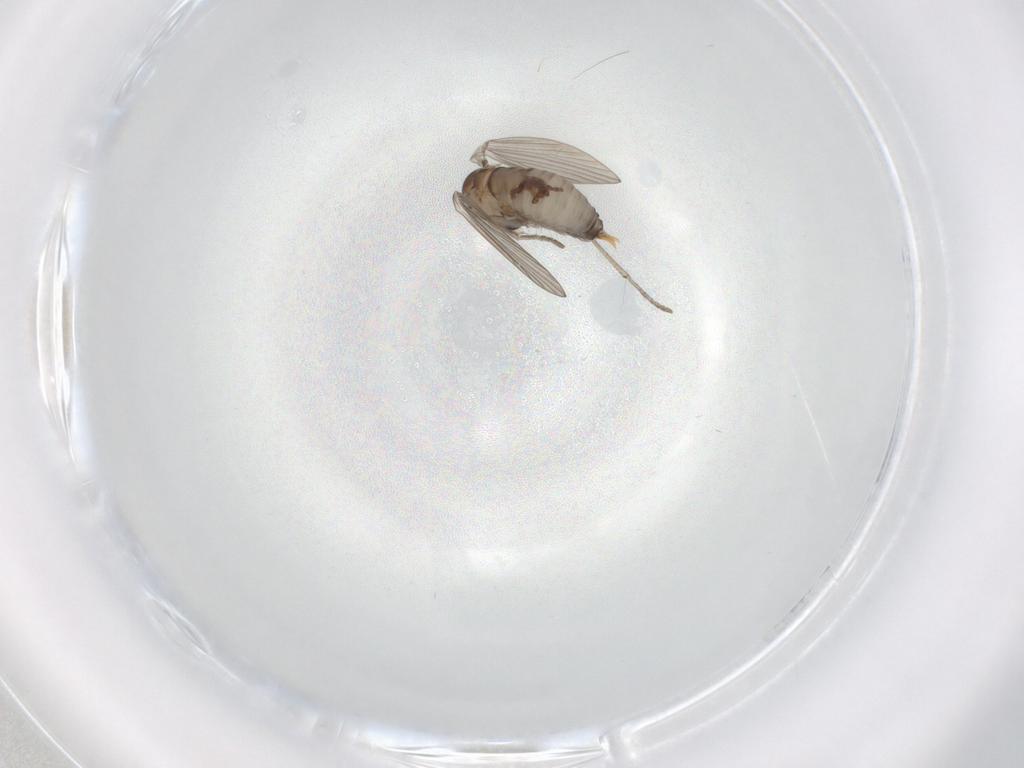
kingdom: Animalia
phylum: Arthropoda
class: Insecta
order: Diptera
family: Psychodidae
